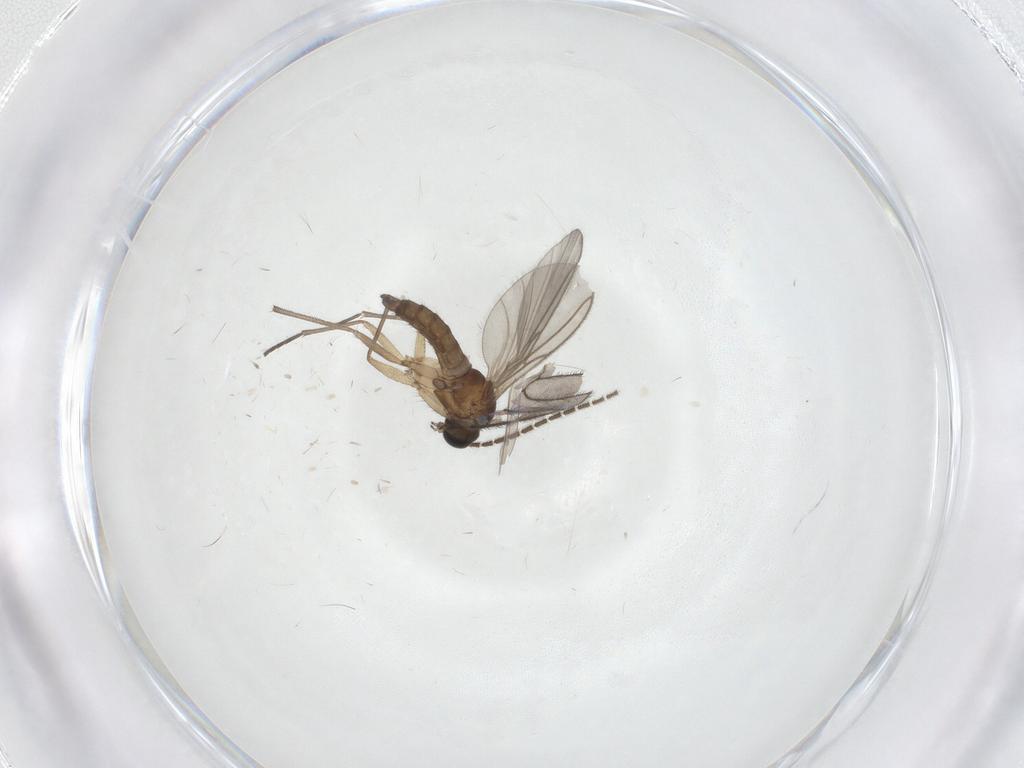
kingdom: Animalia
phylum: Arthropoda
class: Insecta
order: Diptera
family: Sciaridae
